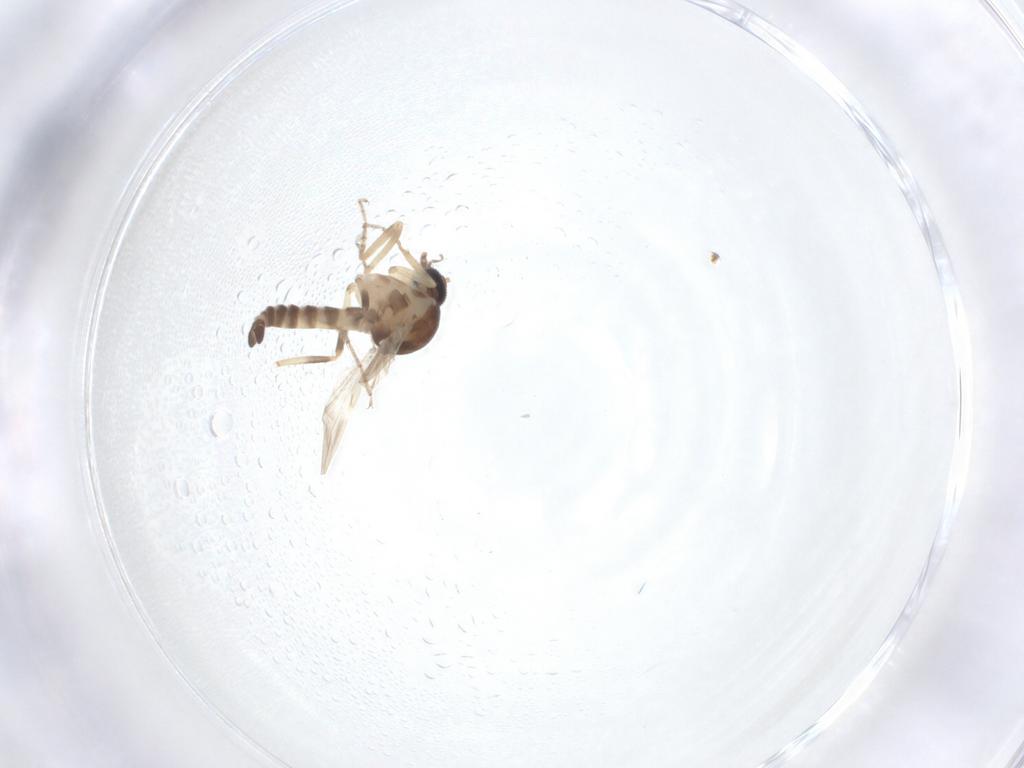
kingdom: Animalia
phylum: Arthropoda
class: Insecta
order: Diptera
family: Ceratopogonidae
